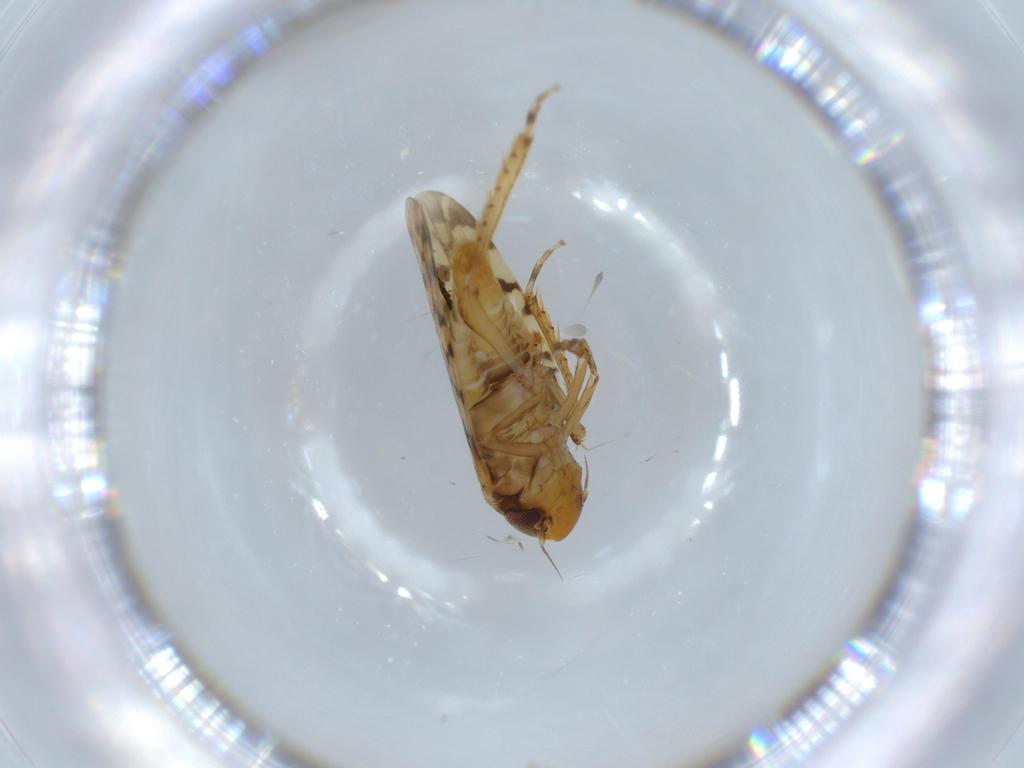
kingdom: Animalia
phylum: Arthropoda
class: Insecta
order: Hemiptera
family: Cicadellidae
